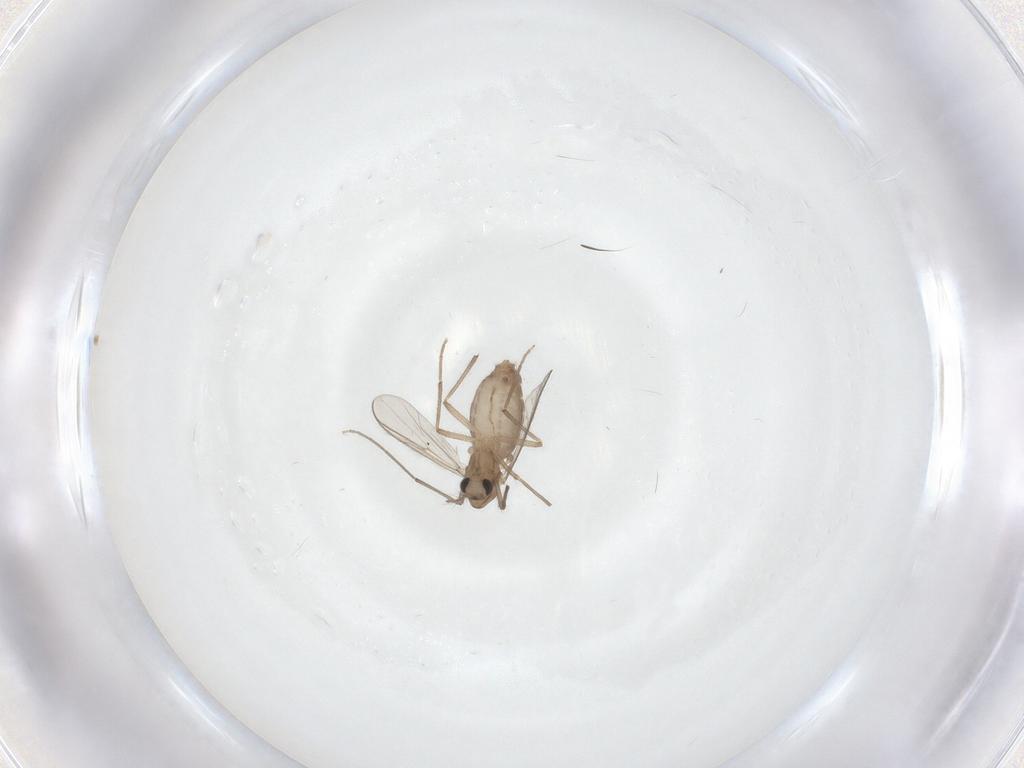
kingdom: Animalia
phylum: Arthropoda
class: Insecta
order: Diptera
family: Chironomidae
